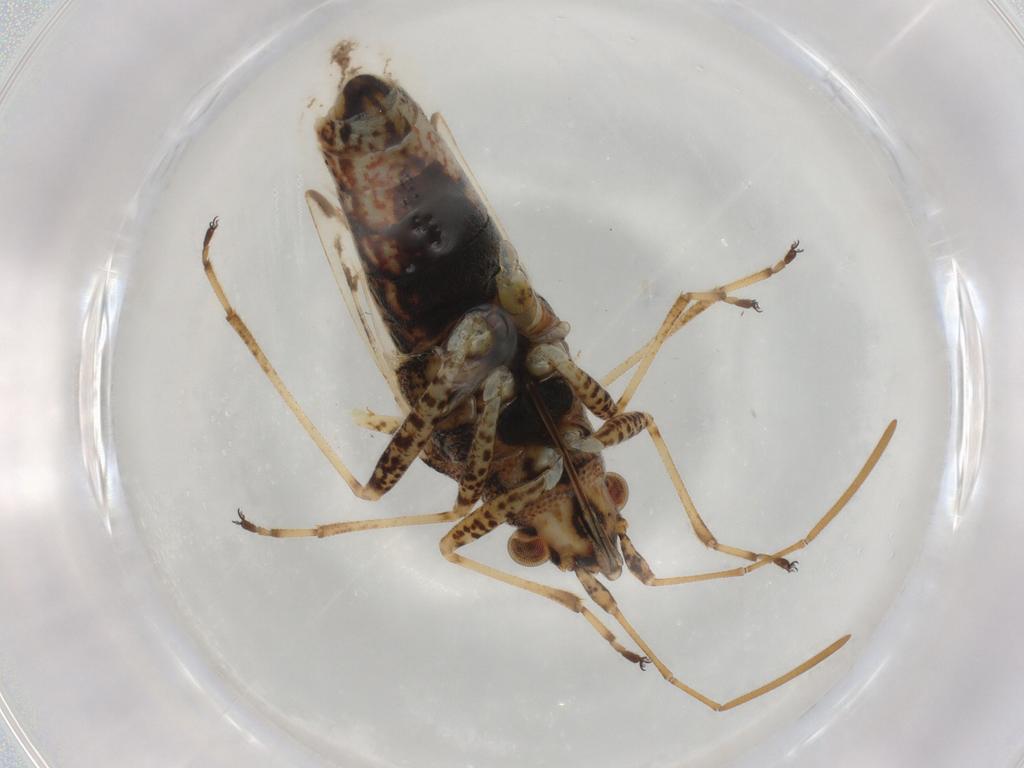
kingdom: Animalia
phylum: Arthropoda
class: Insecta
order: Hemiptera
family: Lygaeidae
